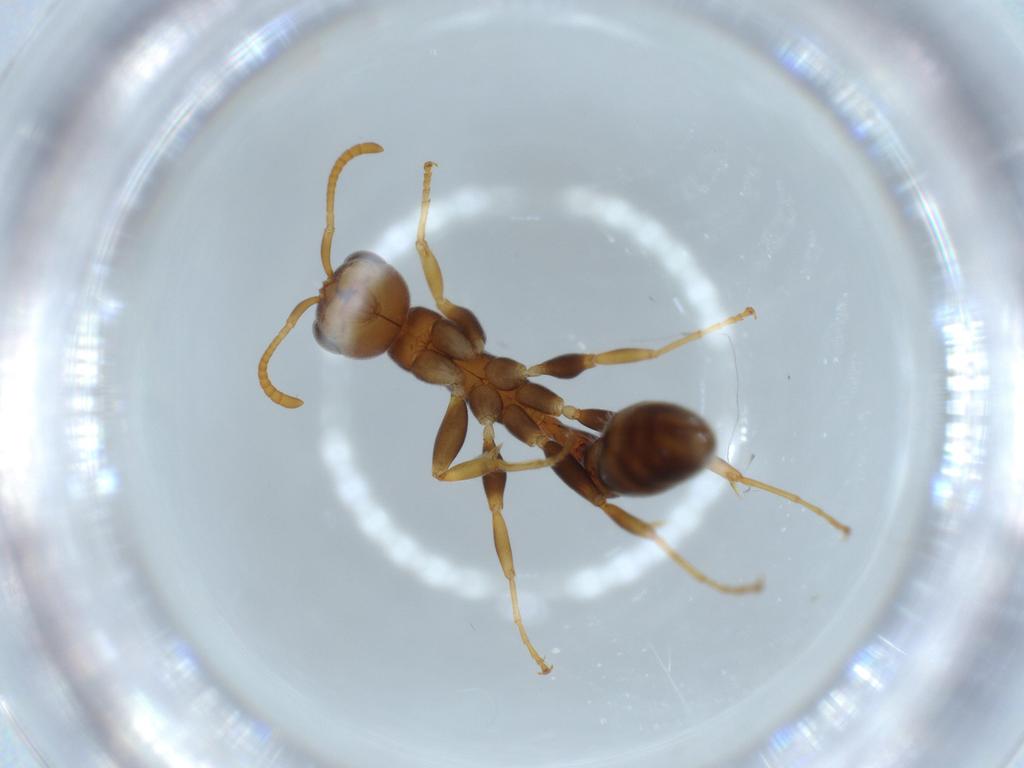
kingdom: Animalia
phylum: Arthropoda
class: Insecta
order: Hymenoptera
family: Formicidae
